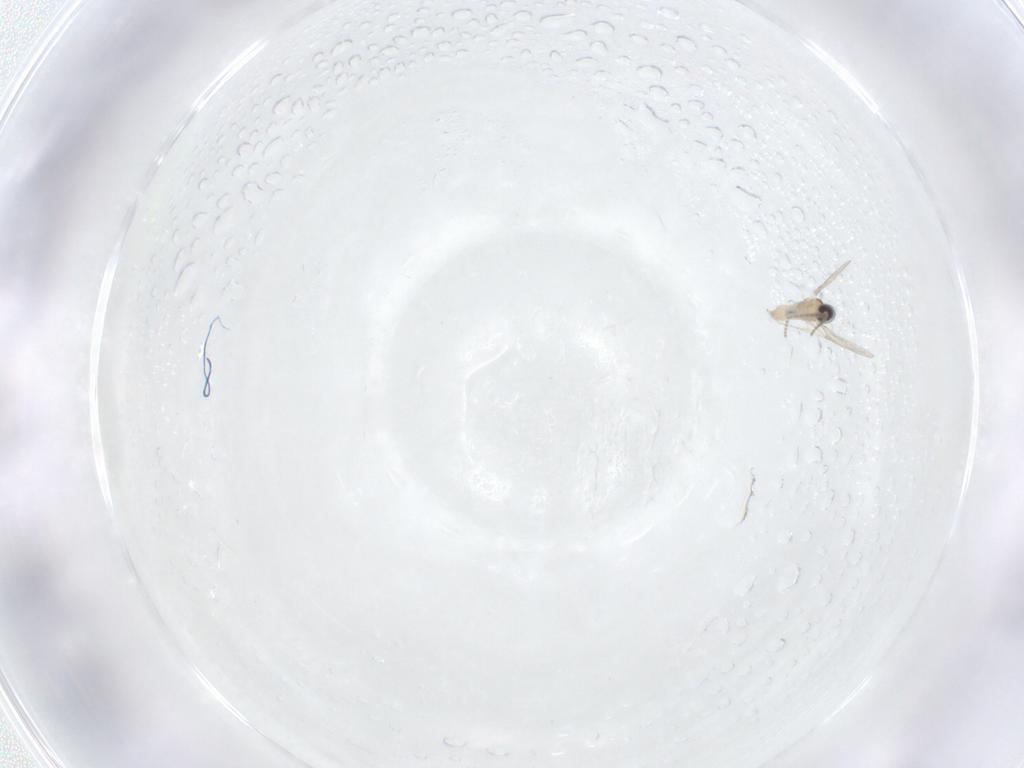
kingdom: Animalia
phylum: Arthropoda
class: Insecta
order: Diptera
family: Cecidomyiidae
